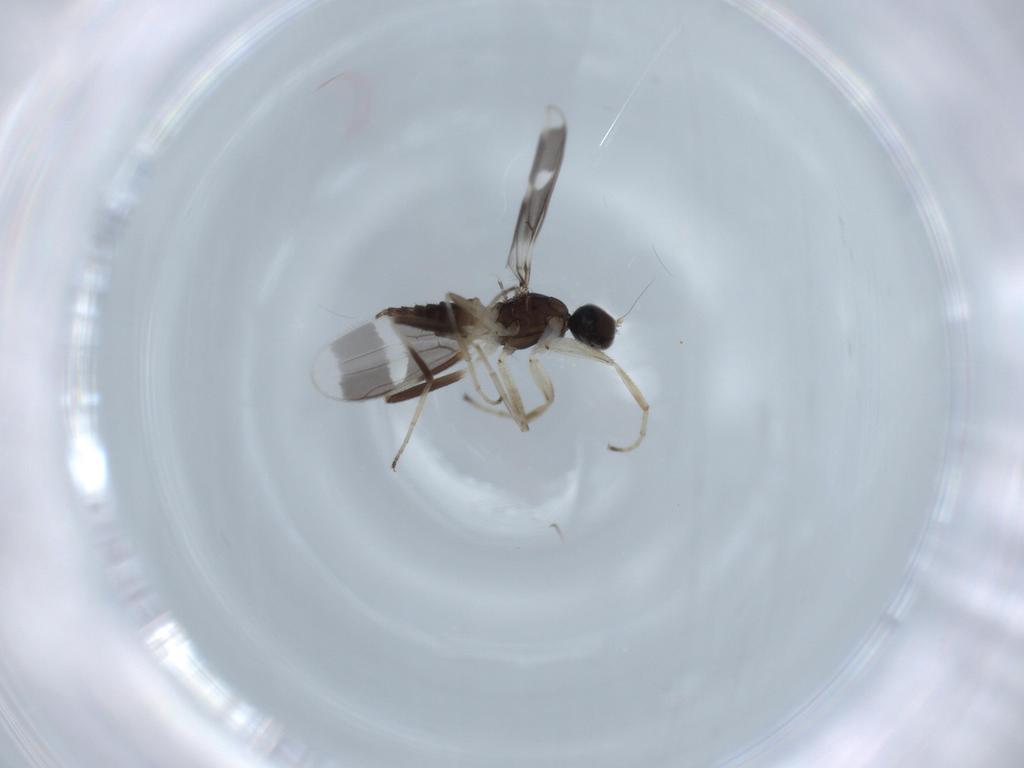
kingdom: Animalia
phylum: Arthropoda
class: Insecta
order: Diptera
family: Hybotidae
